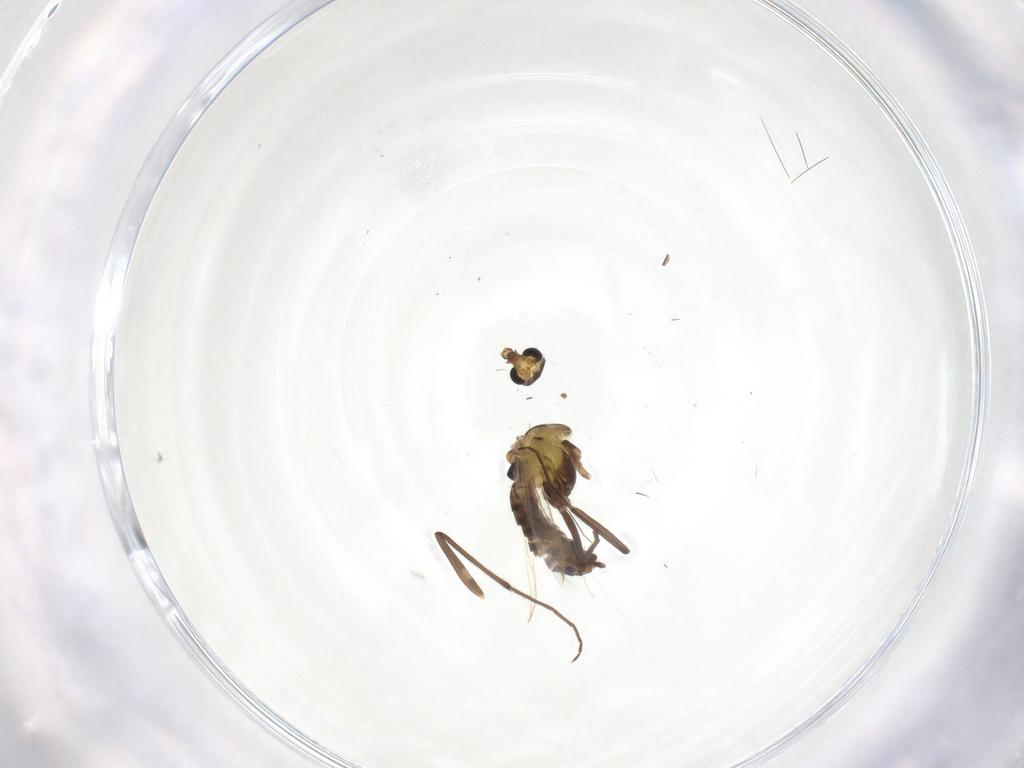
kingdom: Animalia
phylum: Arthropoda
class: Insecta
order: Diptera
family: Chironomidae
